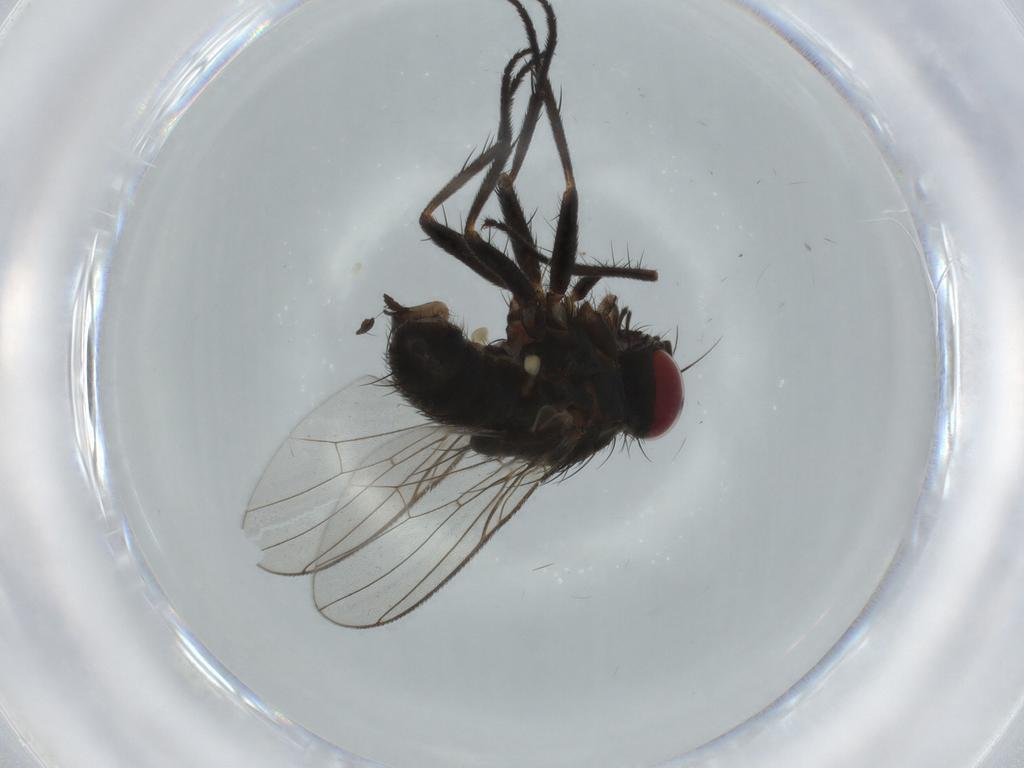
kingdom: Animalia
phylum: Arthropoda
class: Insecta
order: Diptera
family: Muscidae
